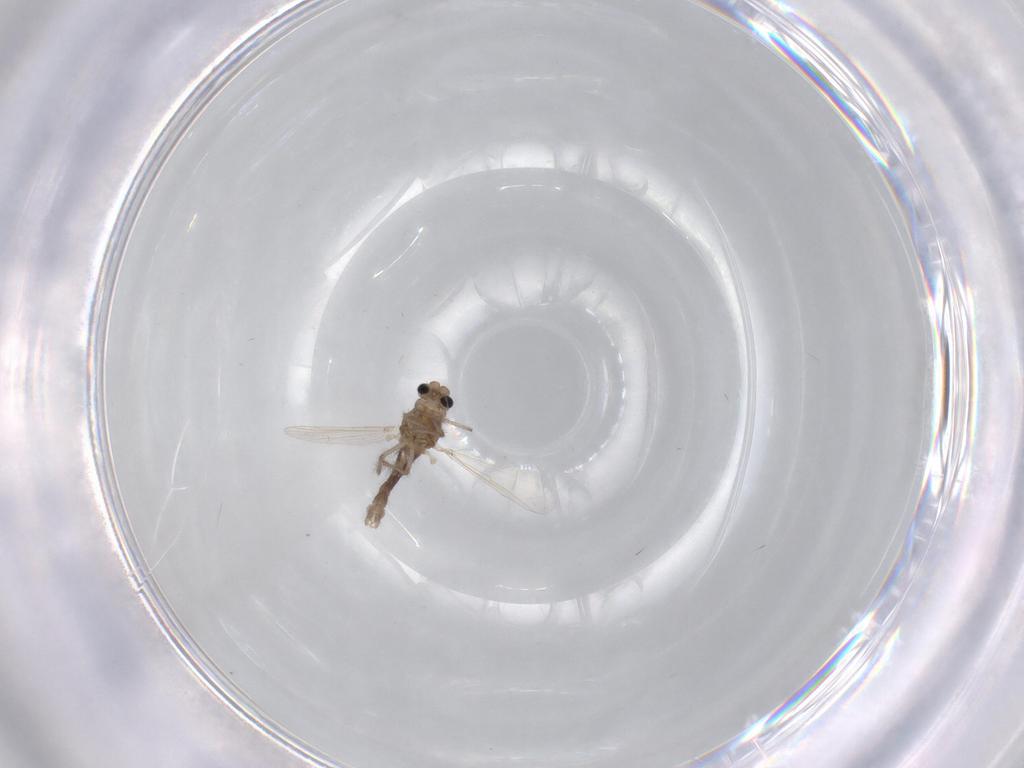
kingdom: Animalia
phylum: Arthropoda
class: Insecta
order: Diptera
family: Chironomidae
